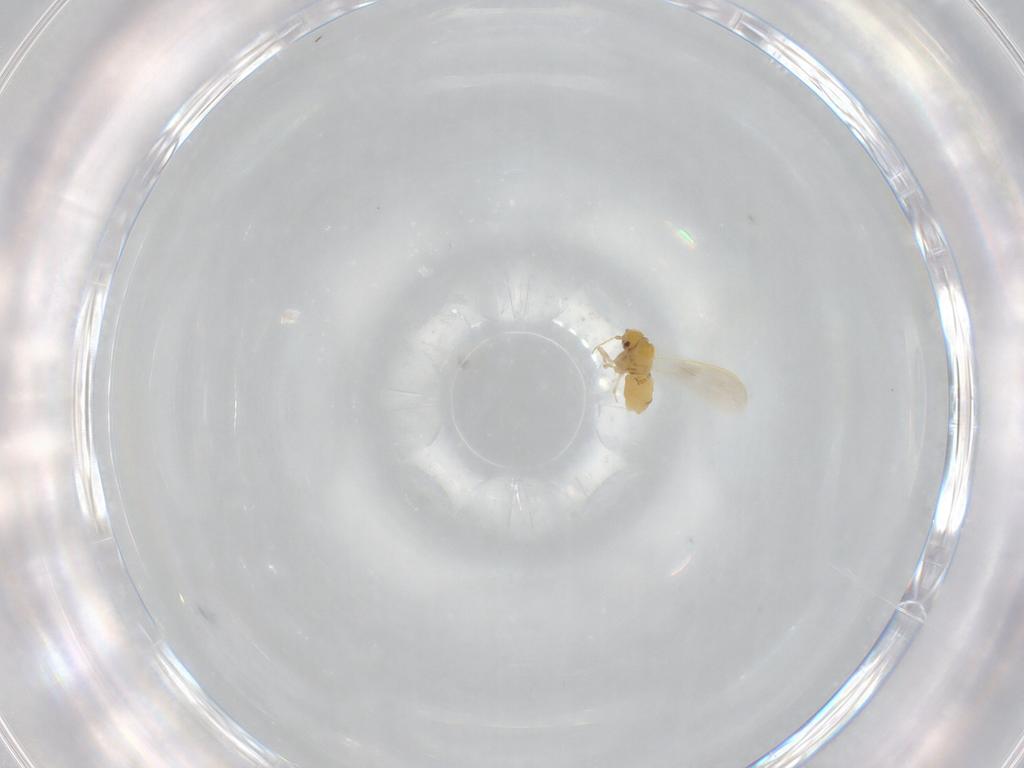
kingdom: Animalia
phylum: Arthropoda
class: Insecta
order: Hemiptera
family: Aleyrodidae
